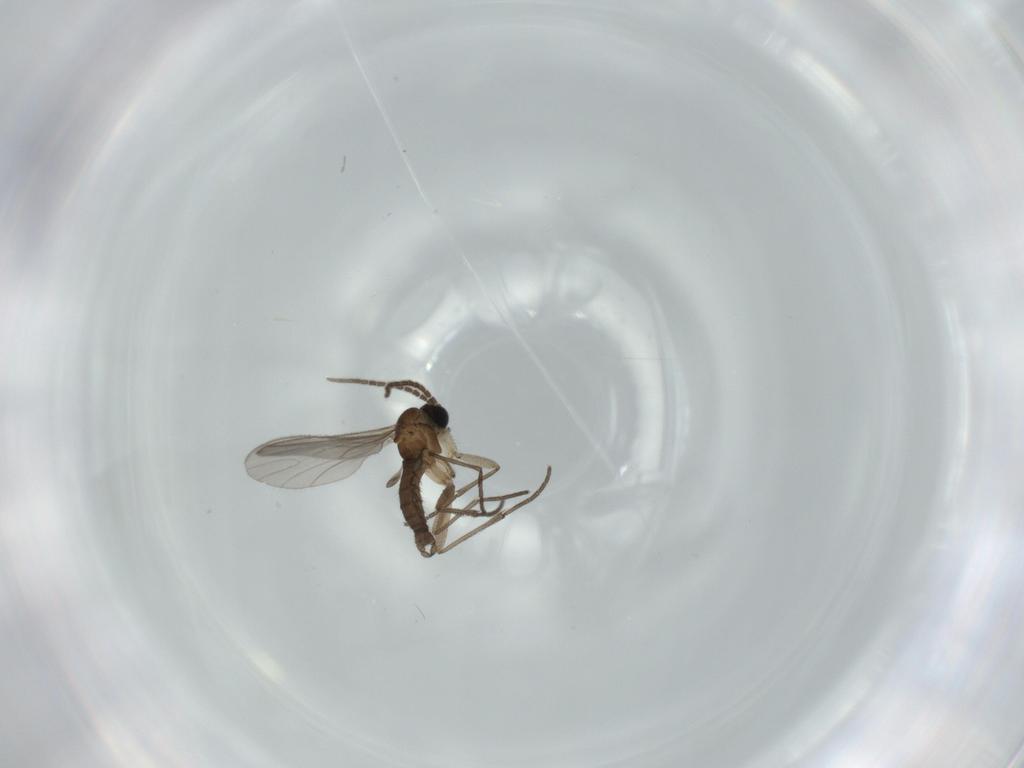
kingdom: Animalia
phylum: Arthropoda
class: Insecta
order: Diptera
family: Sciaridae
